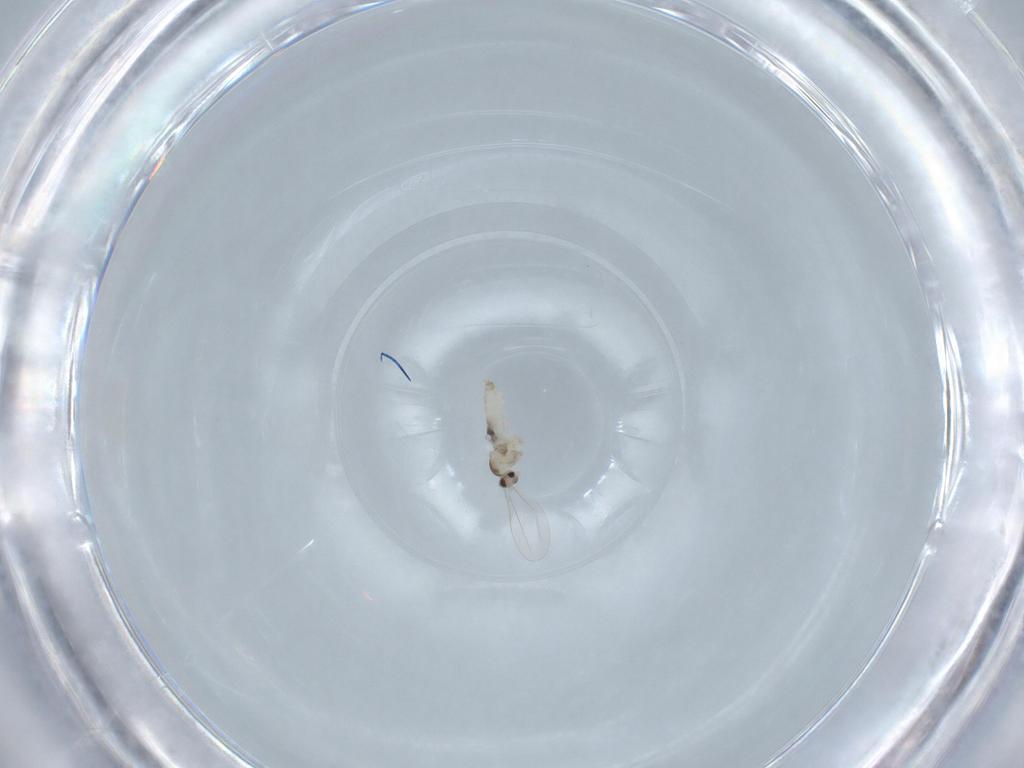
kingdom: Animalia
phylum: Arthropoda
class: Insecta
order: Diptera
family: Cecidomyiidae
